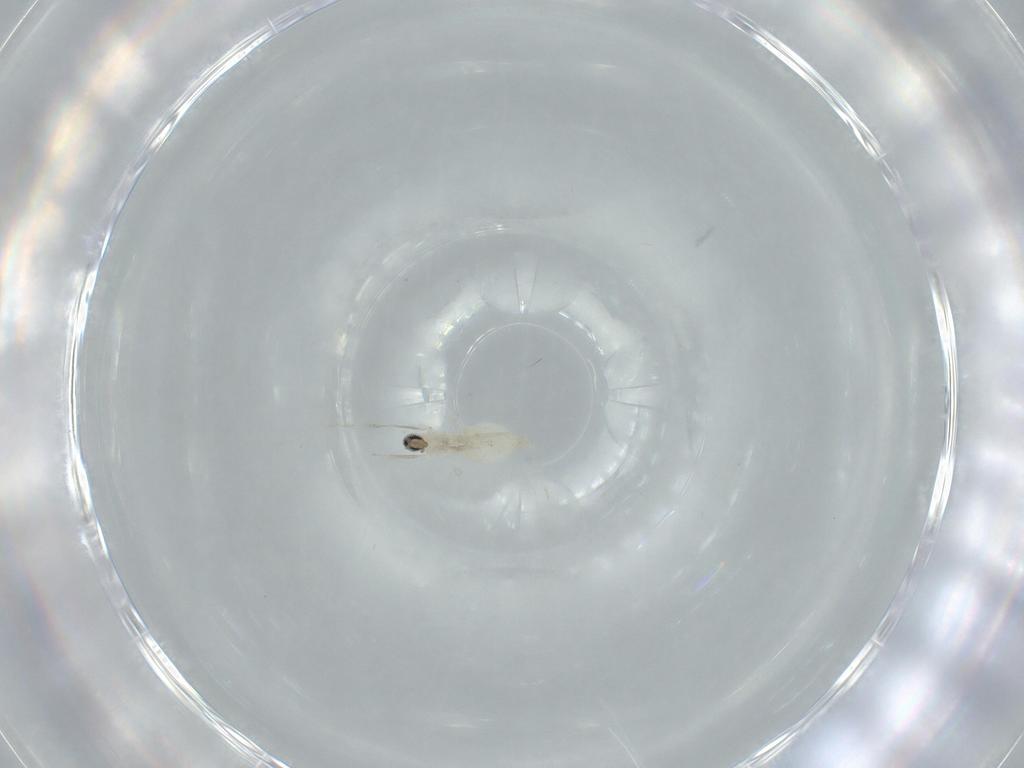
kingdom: Animalia
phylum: Arthropoda
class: Insecta
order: Diptera
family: Cecidomyiidae
